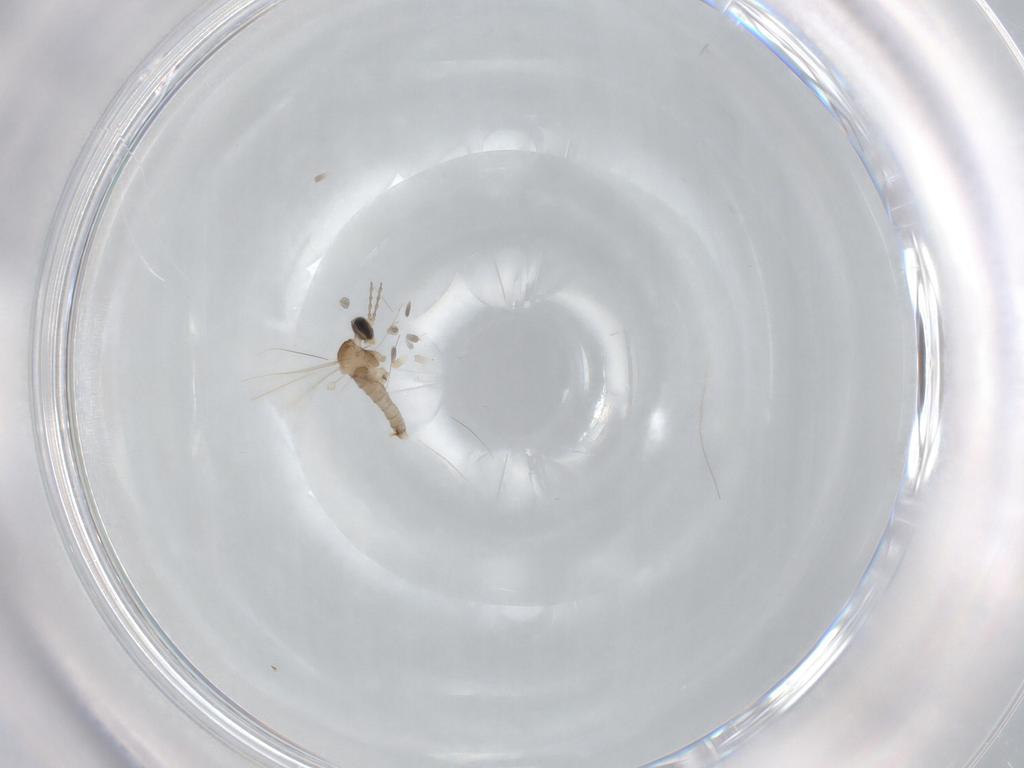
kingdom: Animalia
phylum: Arthropoda
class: Insecta
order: Diptera
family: Cecidomyiidae
